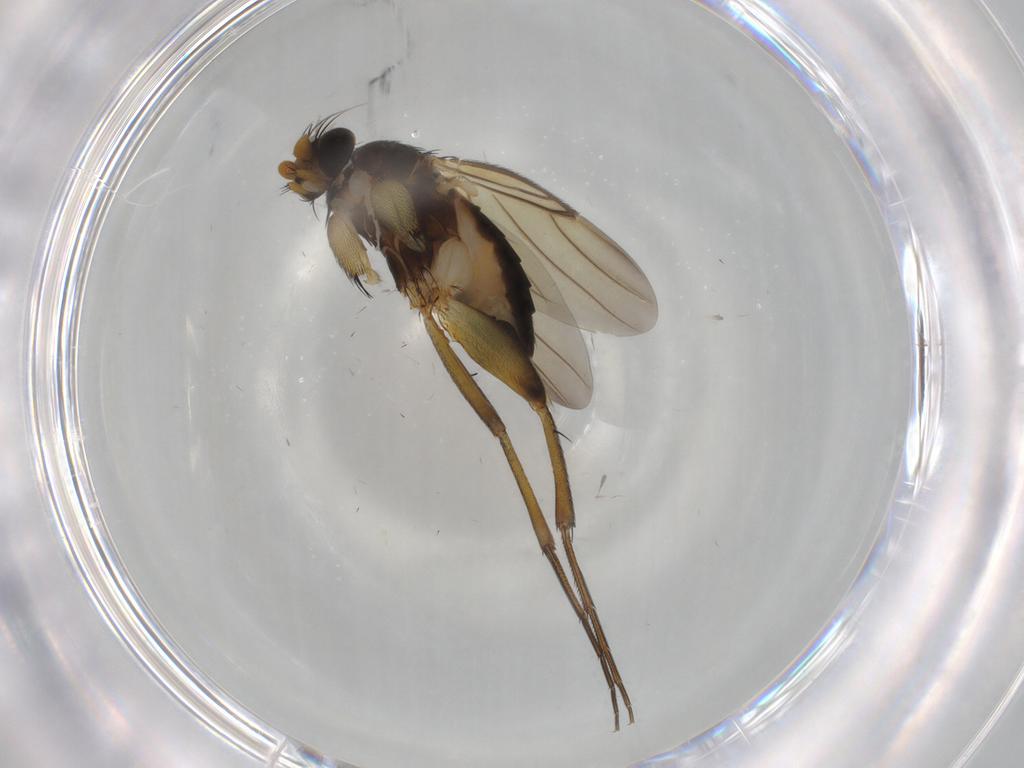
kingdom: Animalia
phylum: Arthropoda
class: Insecta
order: Diptera
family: Phoridae
